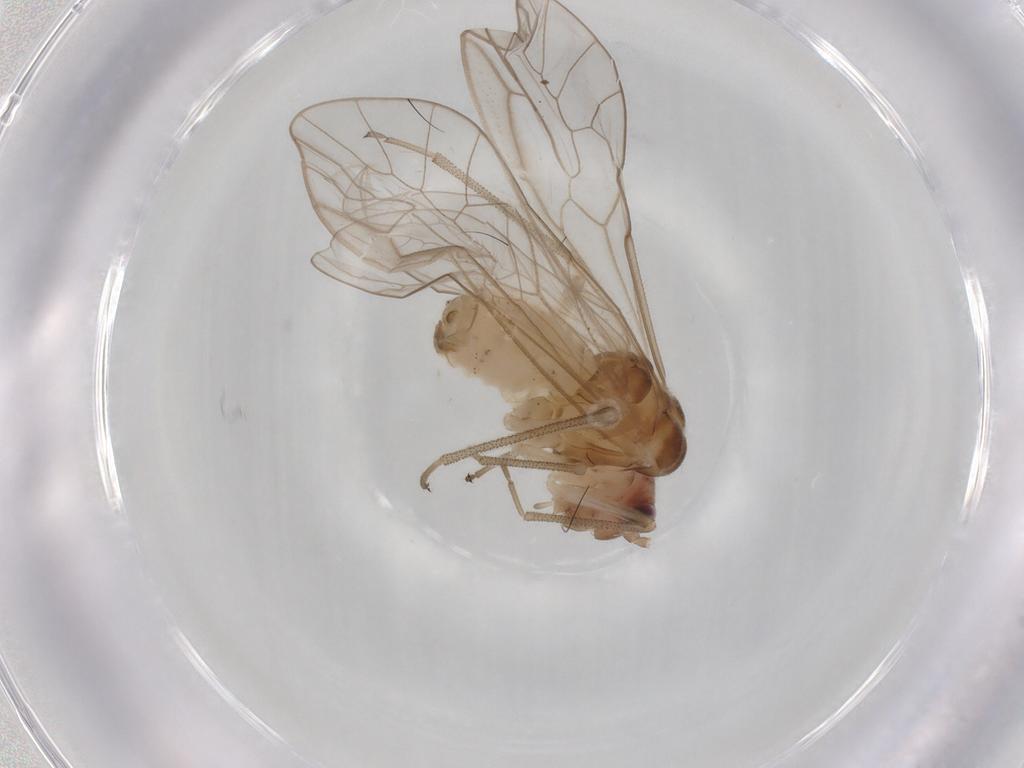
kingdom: Animalia
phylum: Arthropoda
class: Insecta
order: Psocodea
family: Stenopsocidae
